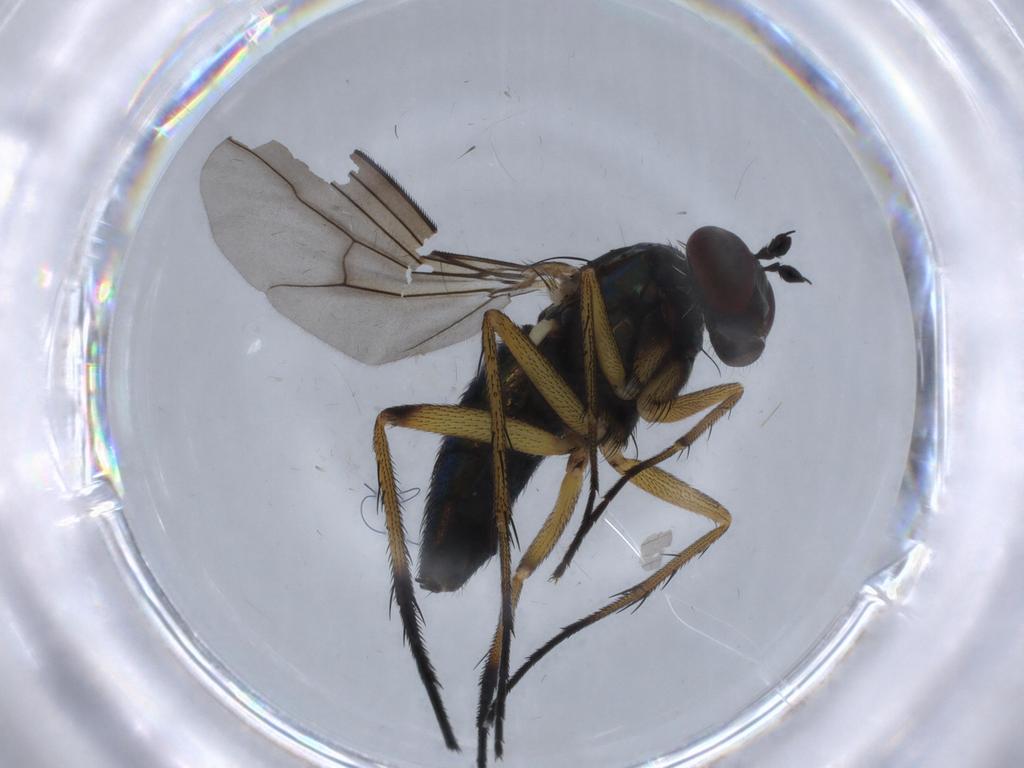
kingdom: Animalia
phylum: Arthropoda
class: Insecta
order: Diptera
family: Dolichopodidae
